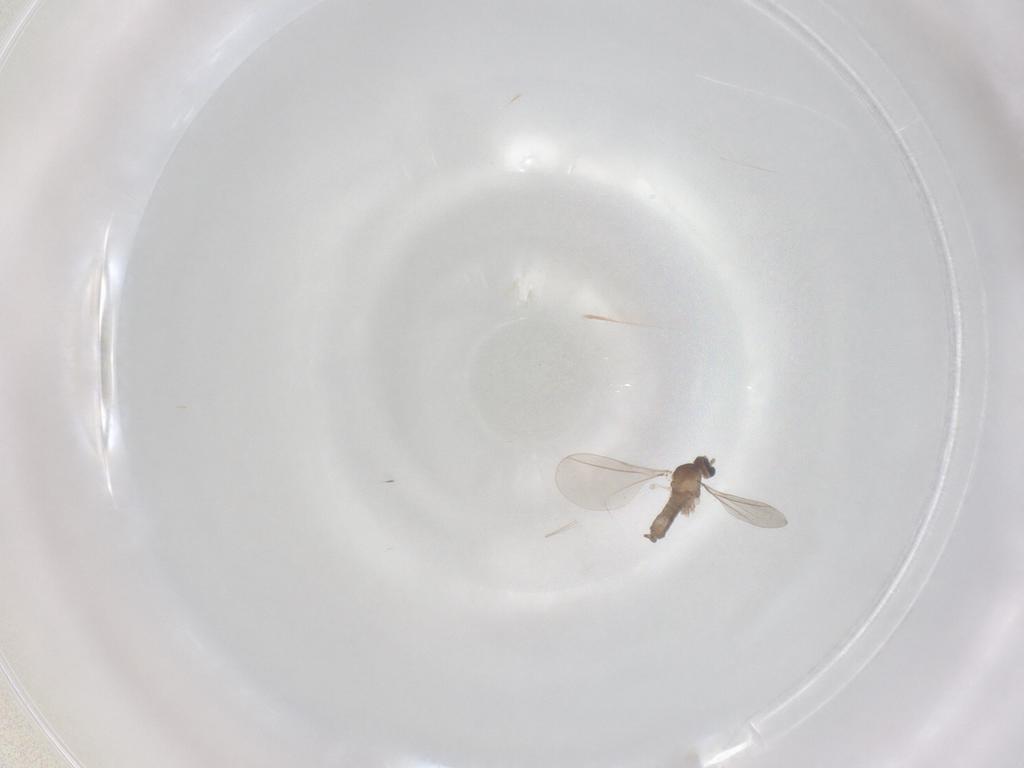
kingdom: Animalia
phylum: Arthropoda
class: Insecta
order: Diptera
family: Cecidomyiidae
